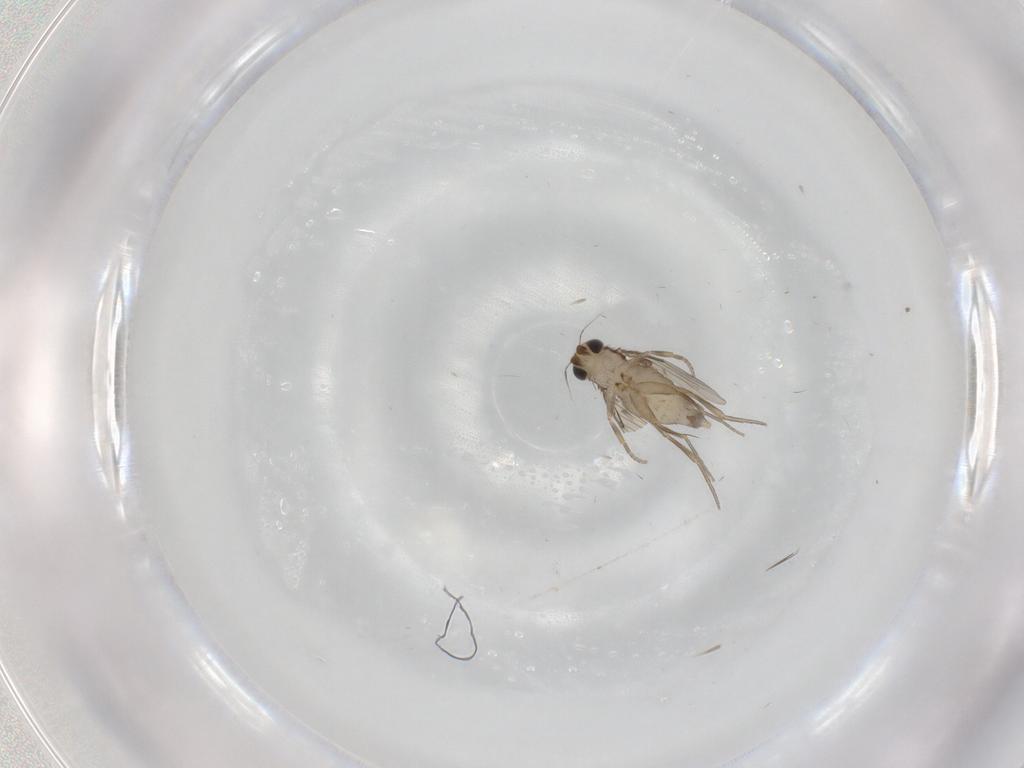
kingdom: Animalia
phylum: Arthropoda
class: Insecta
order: Diptera
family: Phoridae
